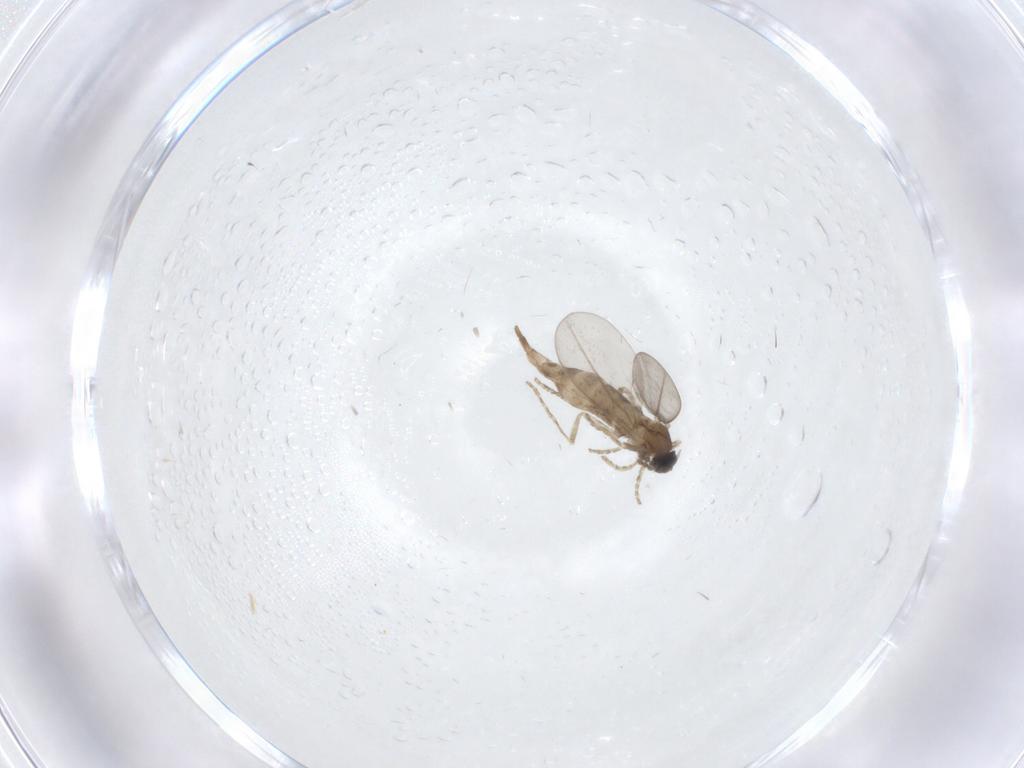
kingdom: Animalia
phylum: Arthropoda
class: Insecta
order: Diptera
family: Cecidomyiidae
